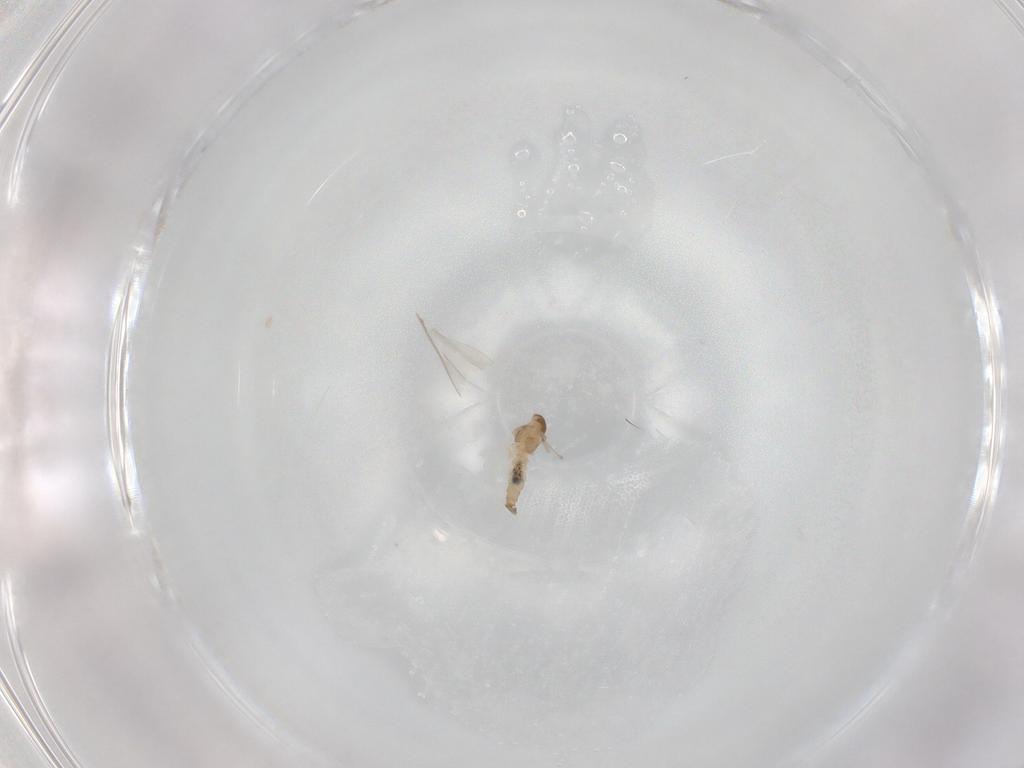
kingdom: Animalia
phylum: Arthropoda
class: Insecta
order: Diptera
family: Cecidomyiidae
